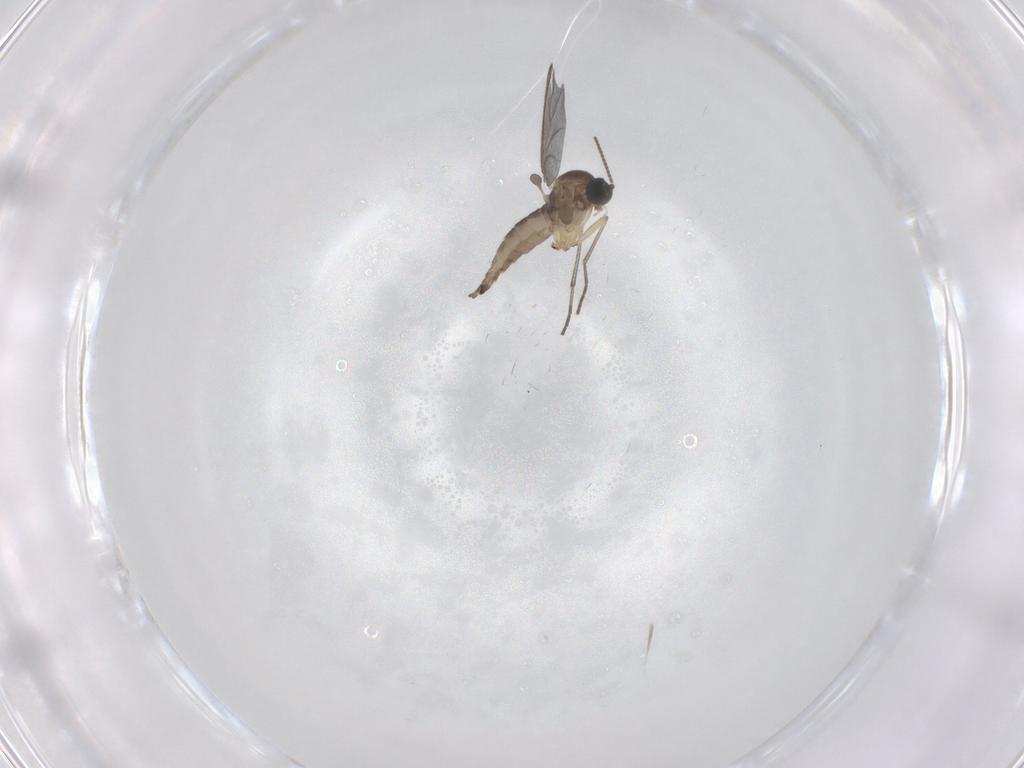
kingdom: Animalia
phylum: Arthropoda
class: Insecta
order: Diptera
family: Sciaridae
